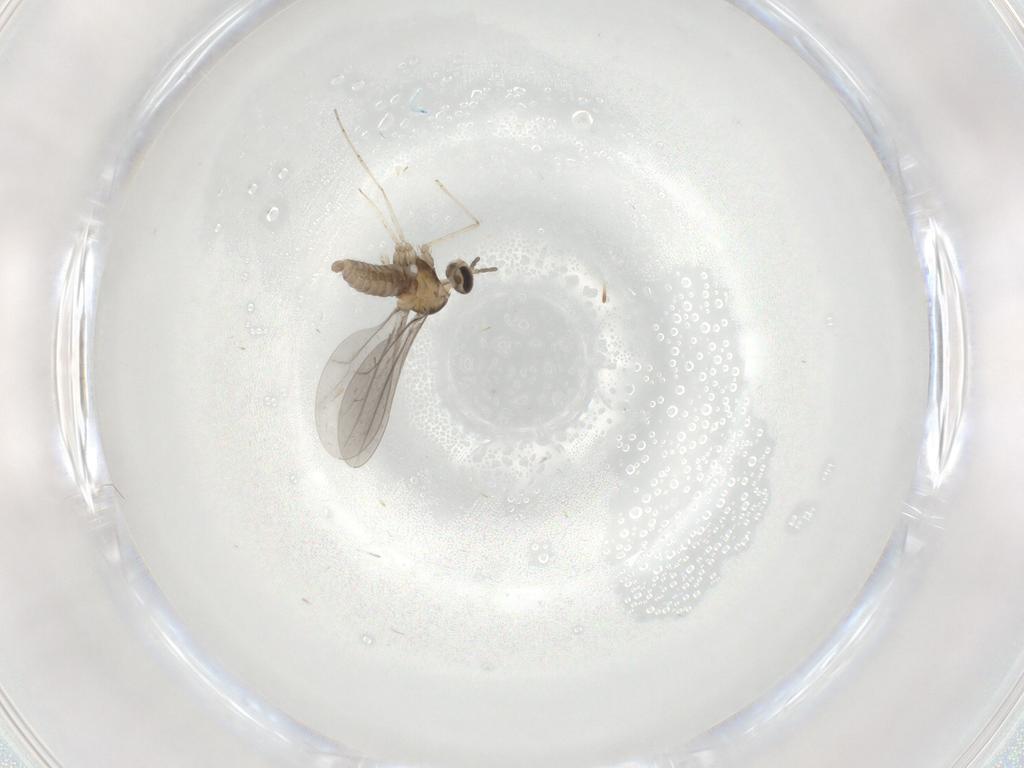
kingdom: Animalia
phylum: Arthropoda
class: Insecta
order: Diptera
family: Cecidomyiidae
